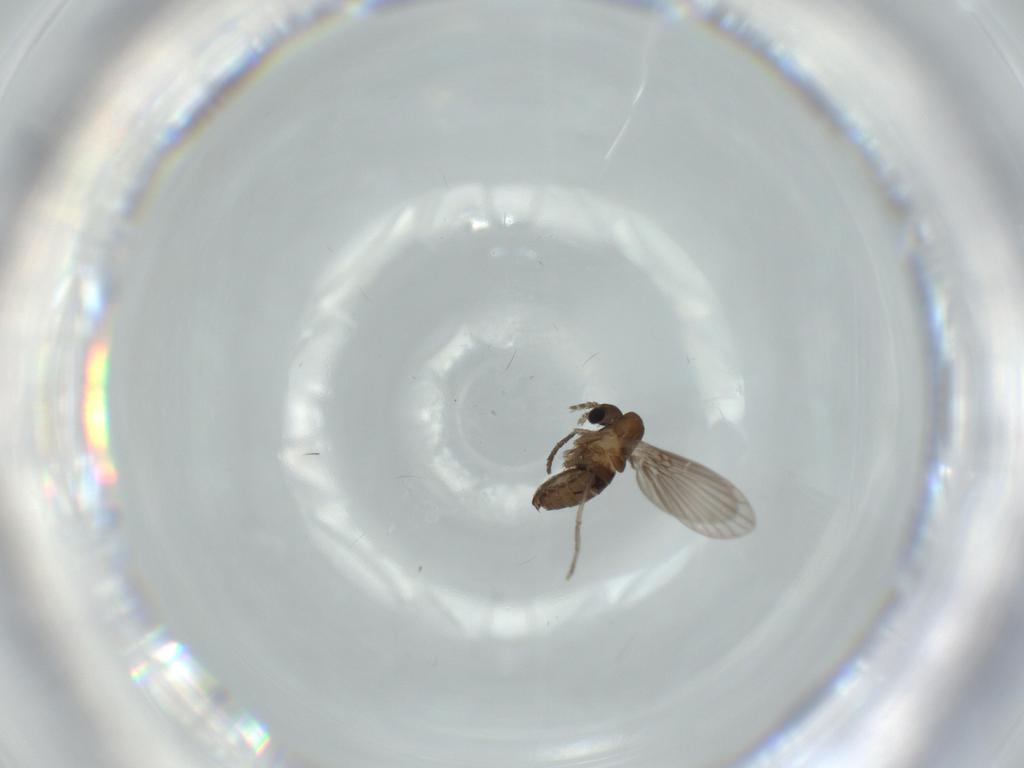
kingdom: Animalia
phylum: Arthropoda
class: Insecta
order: Diptera
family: Psychodidae
